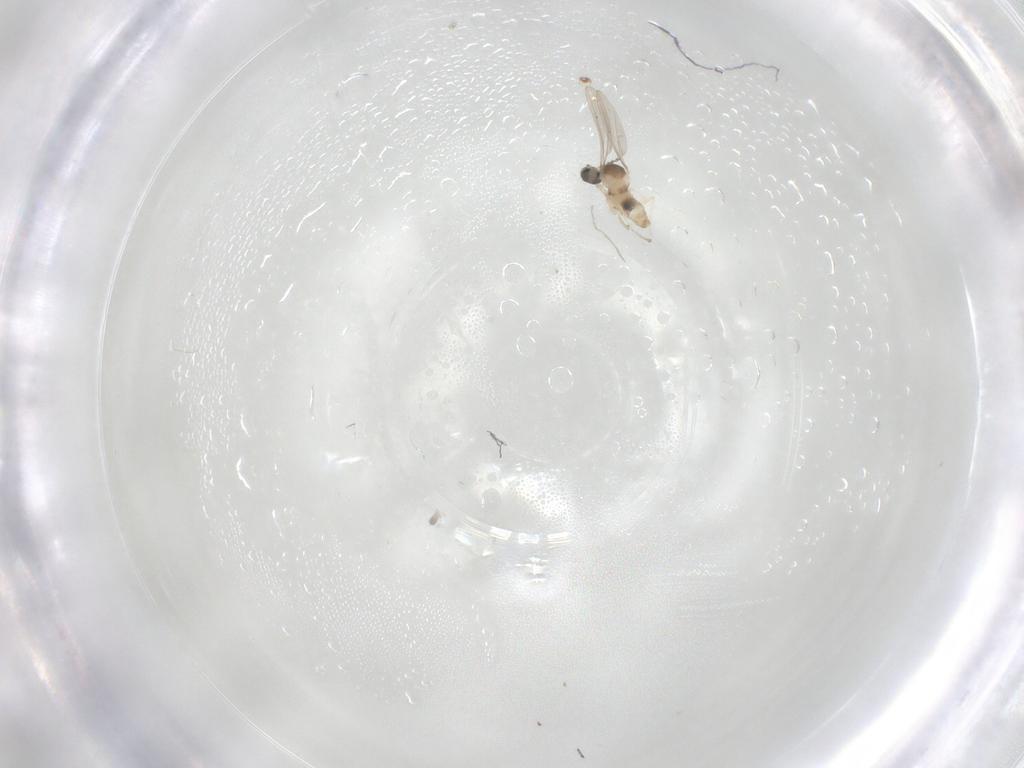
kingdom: Animalia
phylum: Arthropoda
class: Insecta
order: Diptera
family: Cecidomyiidae
